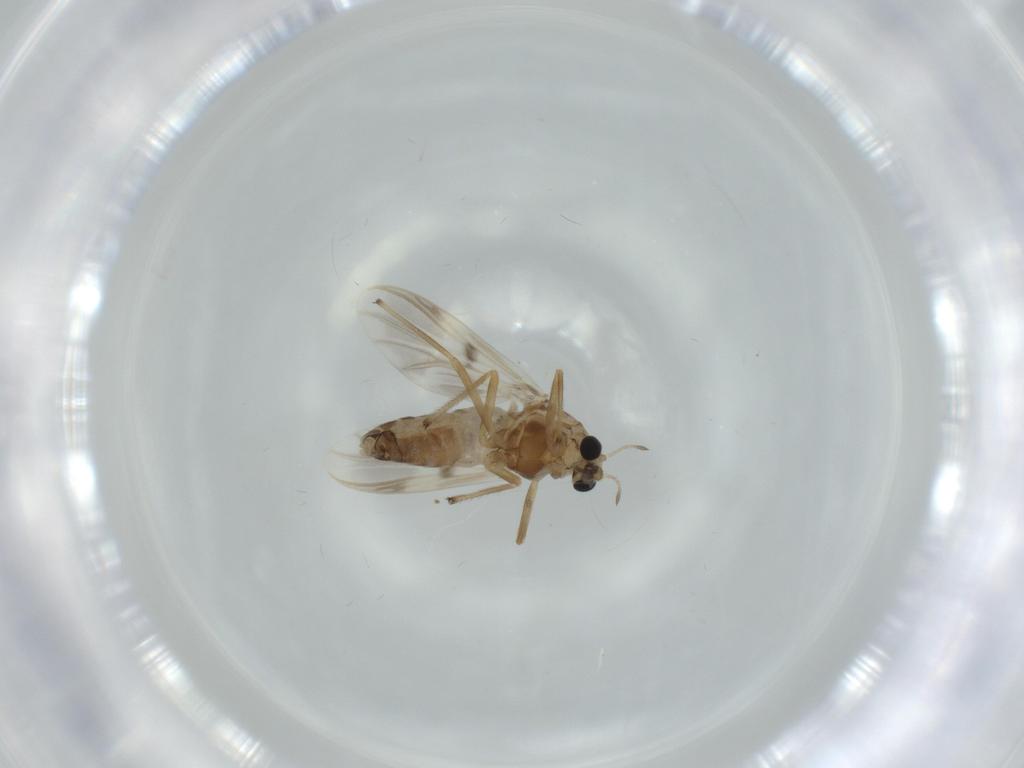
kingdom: Animalia
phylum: Arthropoda
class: Insecta
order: Diptera
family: Chironomidae
